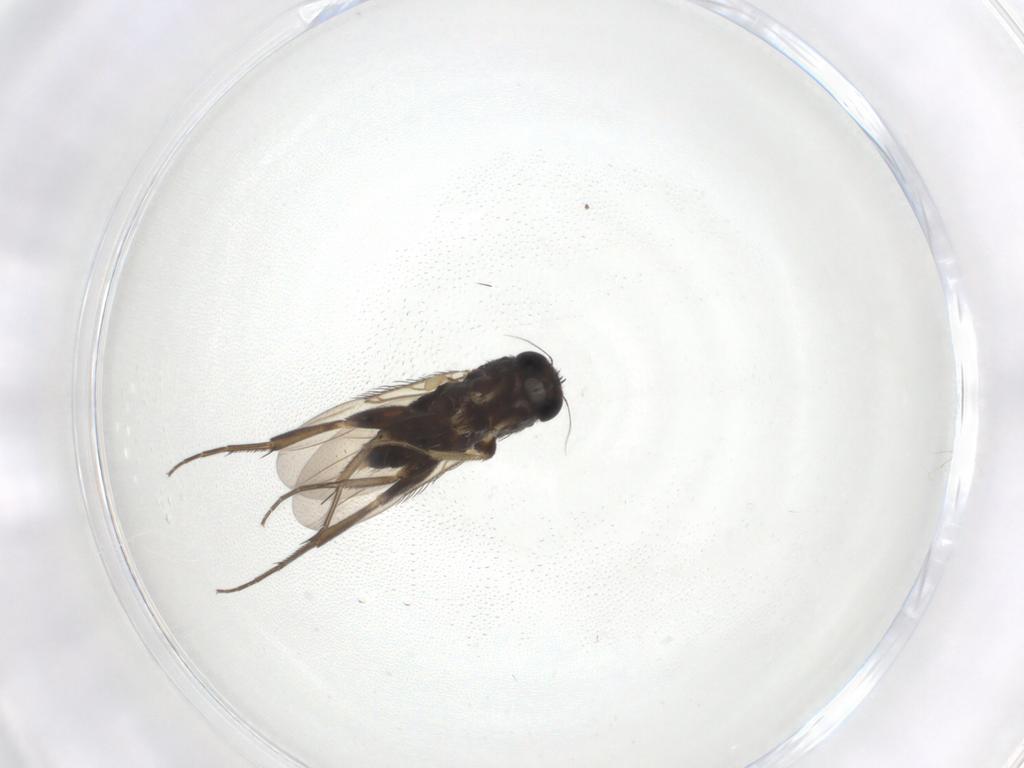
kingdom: Animalia
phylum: Arthropoda
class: Insecta
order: Diptera
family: Phoridae
